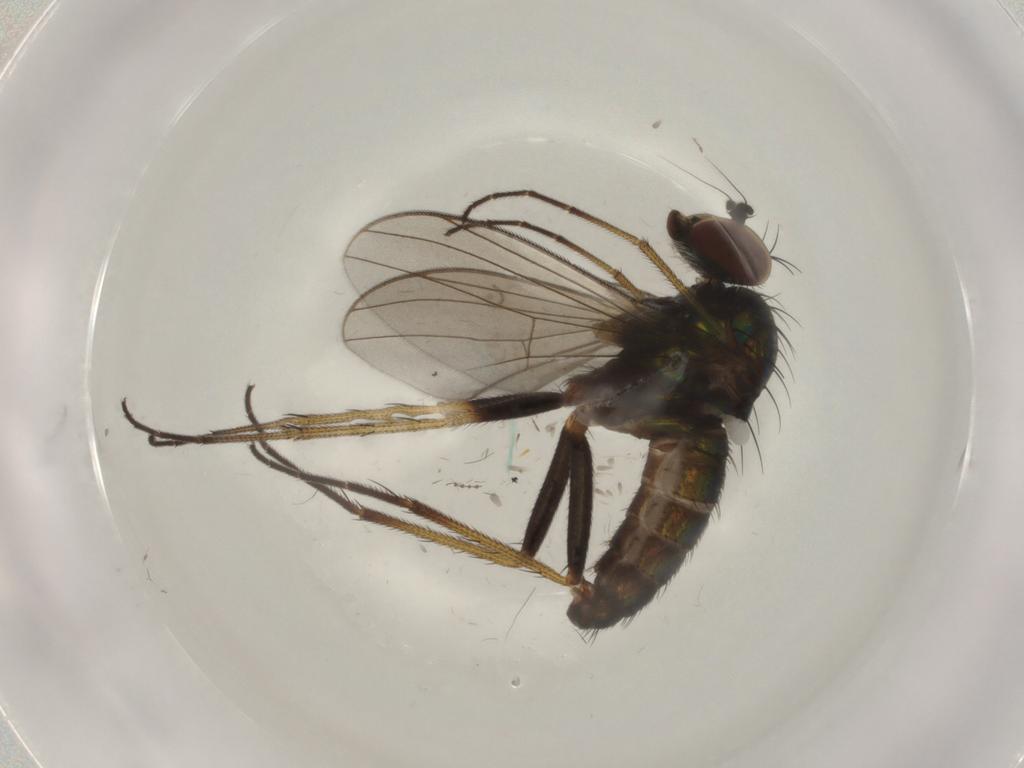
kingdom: Animalia
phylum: Arthropoda
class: Insecta
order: Diptera
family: Dolichopodidae
